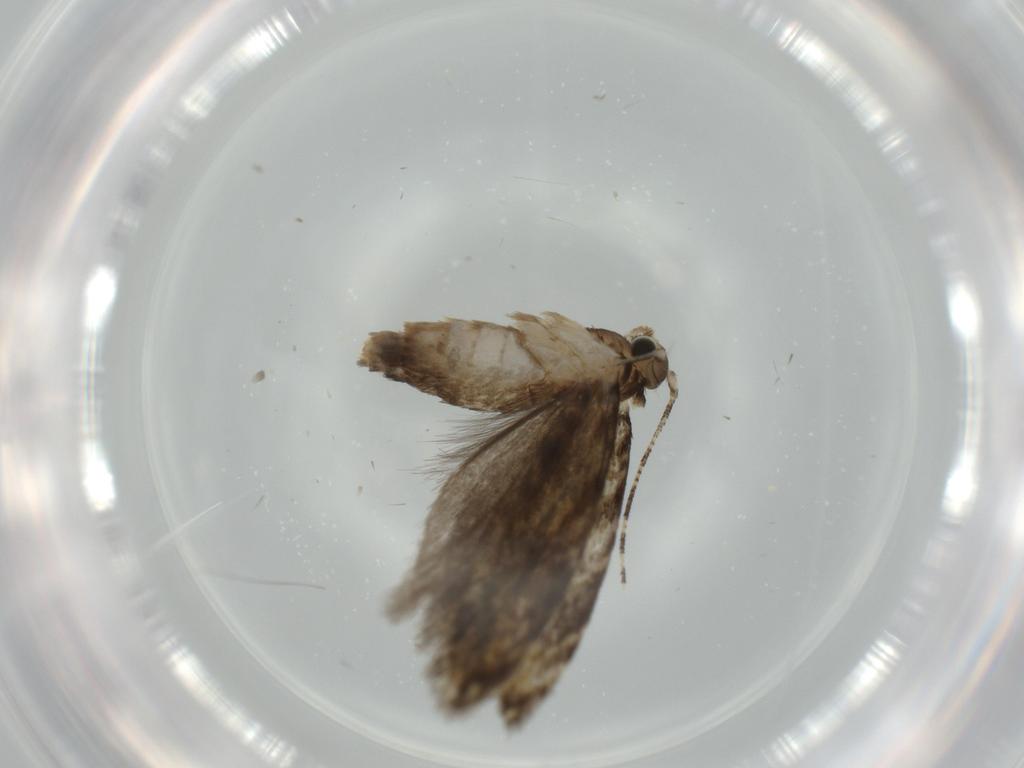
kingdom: Animalia
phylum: Arthropoda
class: Insecta
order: Lepidoptera
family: Tineidae
